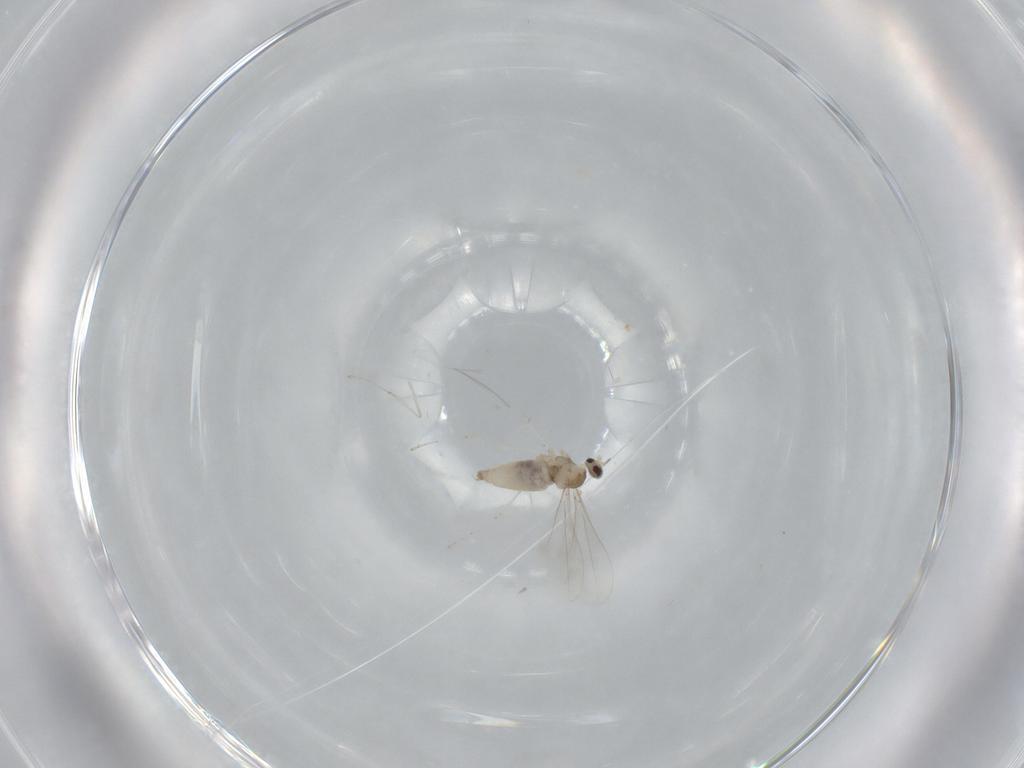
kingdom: Animalia
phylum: Arthropoda
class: Insecta
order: Diptera
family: Cecidomyiidae
